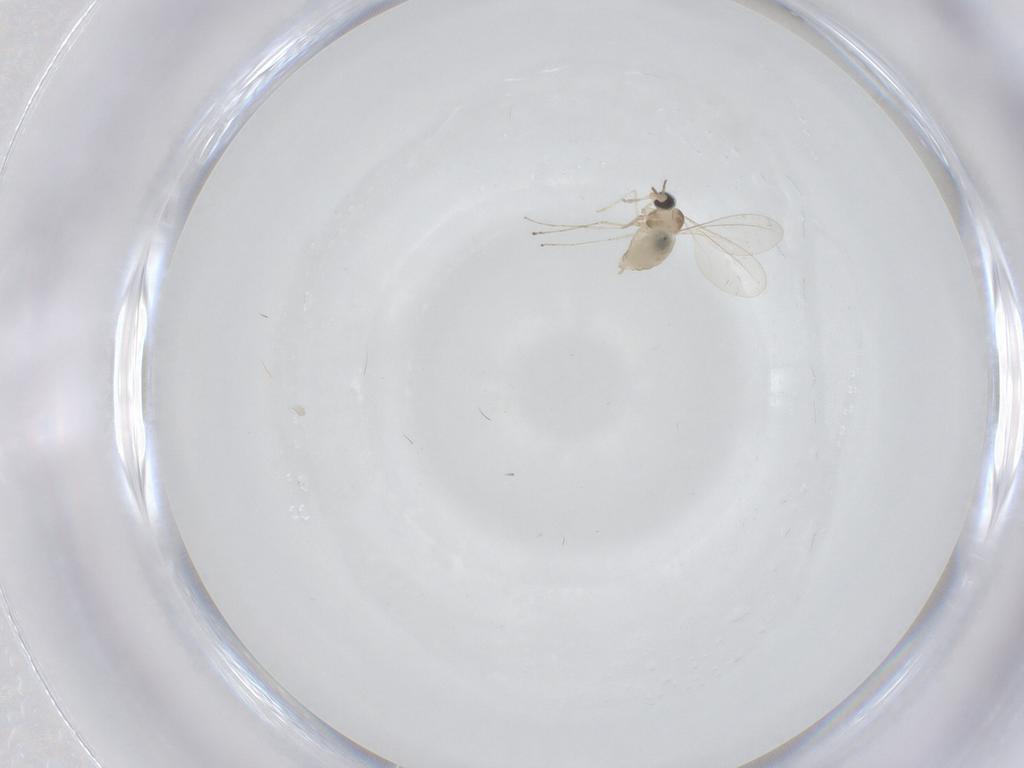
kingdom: Animalia
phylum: Arthropoda
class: Insecta
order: Diptera
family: Cecidomyiidae
